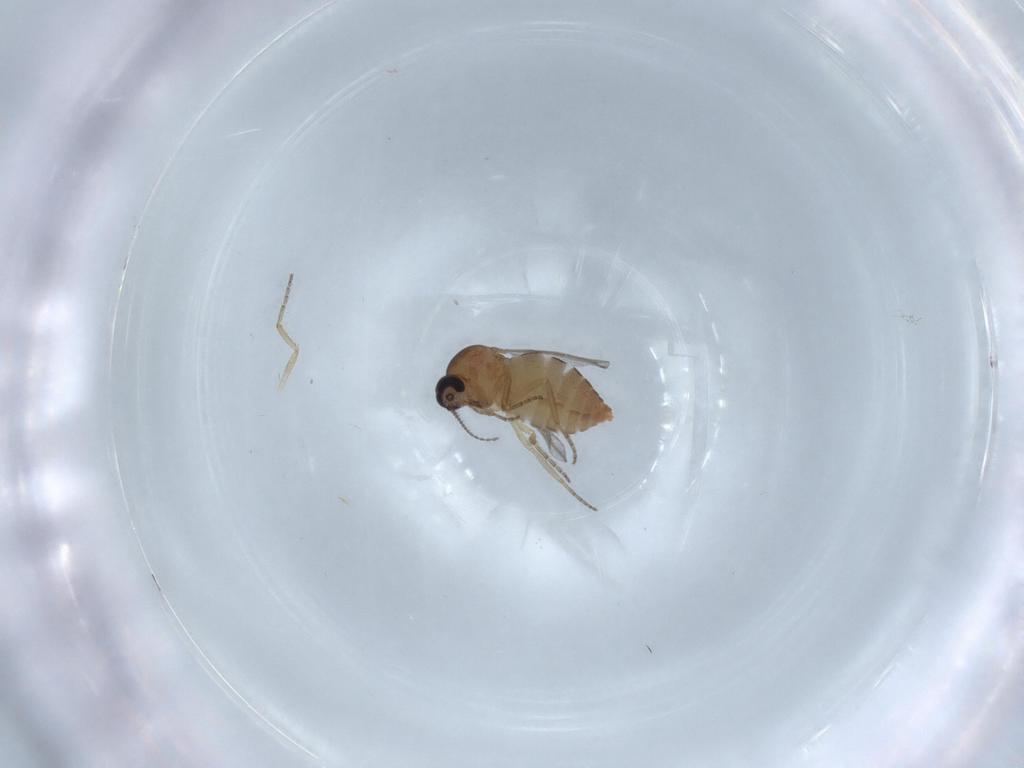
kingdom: Animalia
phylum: Arthropoda
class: Insecta
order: Diptera
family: Ceratopogonidae
